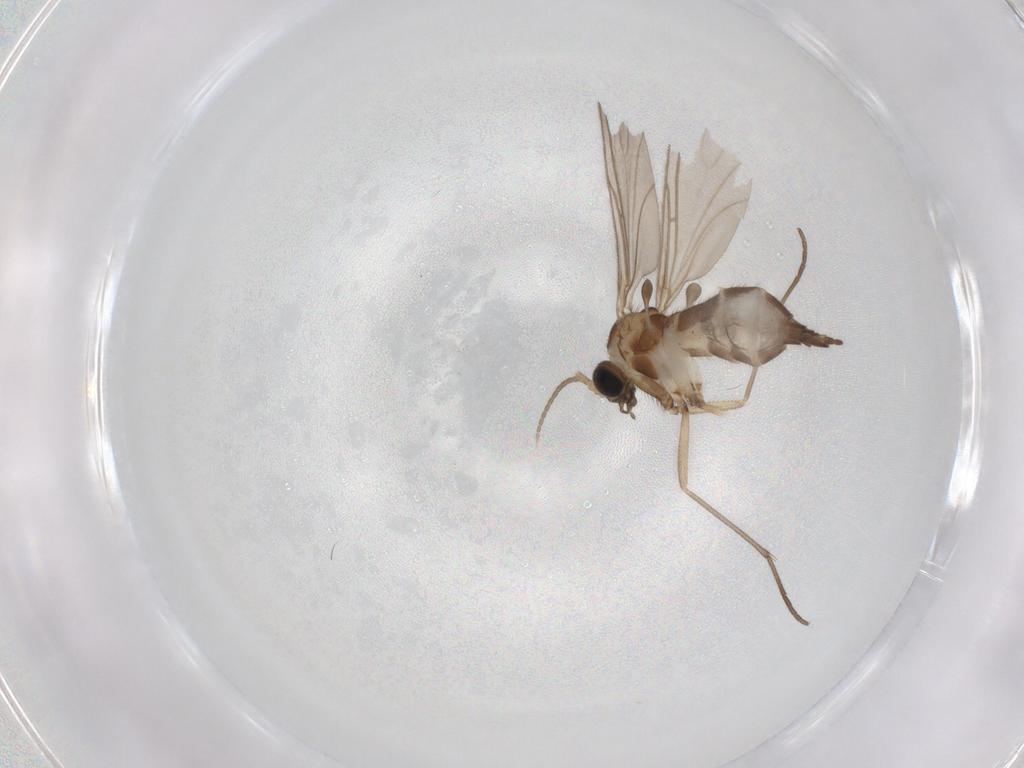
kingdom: Animalia
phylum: Arthropoda
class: Insecta
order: Diptera
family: Sciaridae
